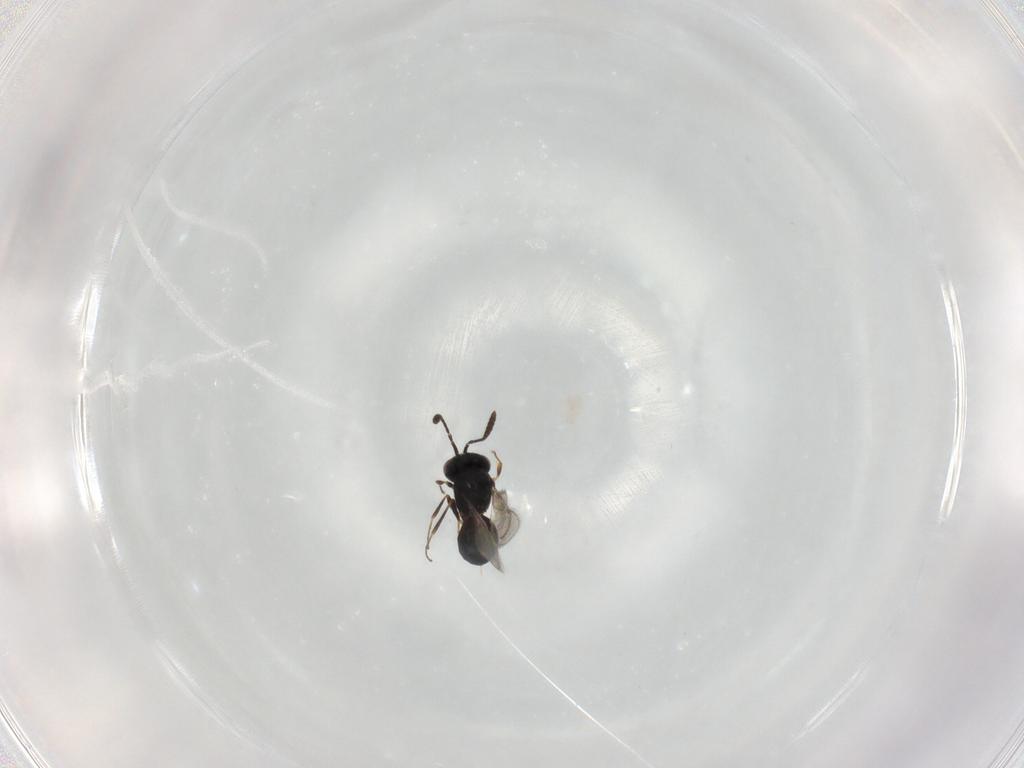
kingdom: Animalia
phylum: Arthropoda
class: Insecta
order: Hymenoptera
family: Scelionidae
